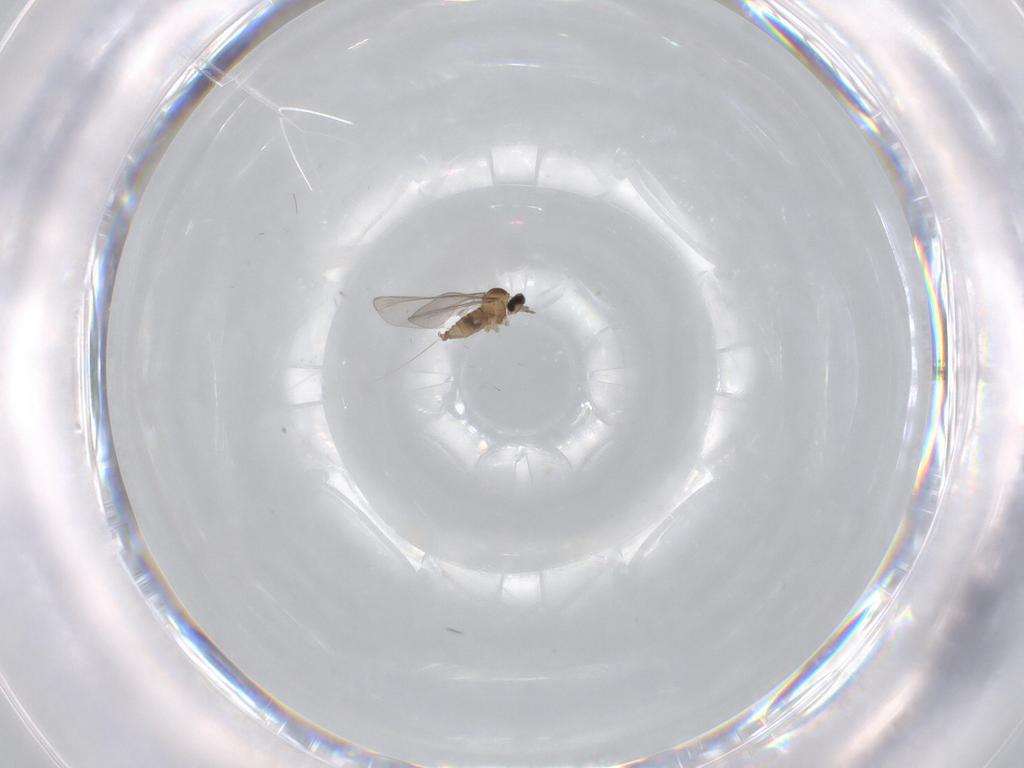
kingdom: Animalia
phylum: Arthropoda
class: Insecta
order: Diptera
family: Cecidomyiidae
